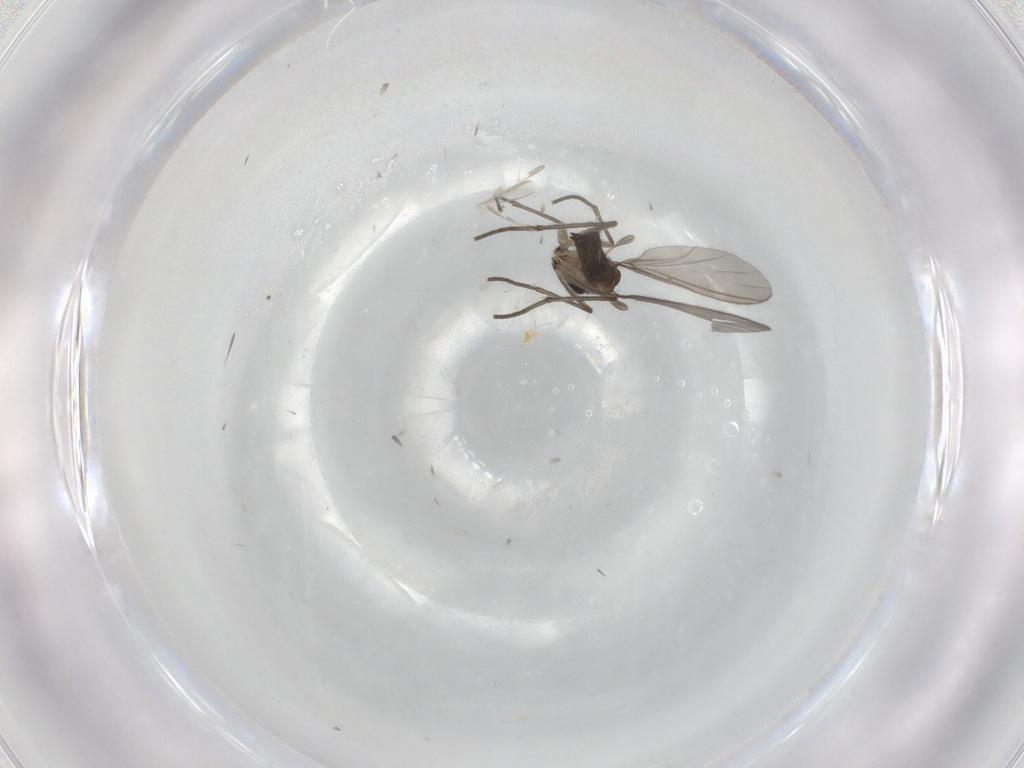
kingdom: Animalia
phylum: Arthropoda
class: Insecta
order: Diptera
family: Sciaridae
